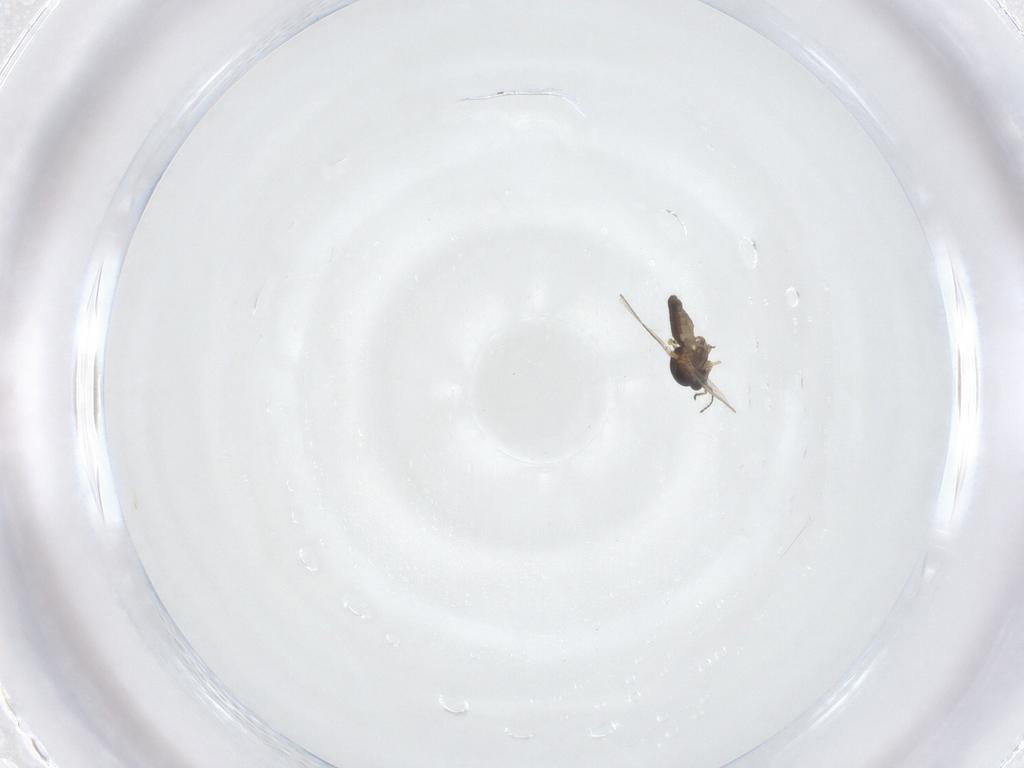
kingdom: Animalia
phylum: Arthropoda
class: Insecta
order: Diptera
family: Ceratopogonidae
